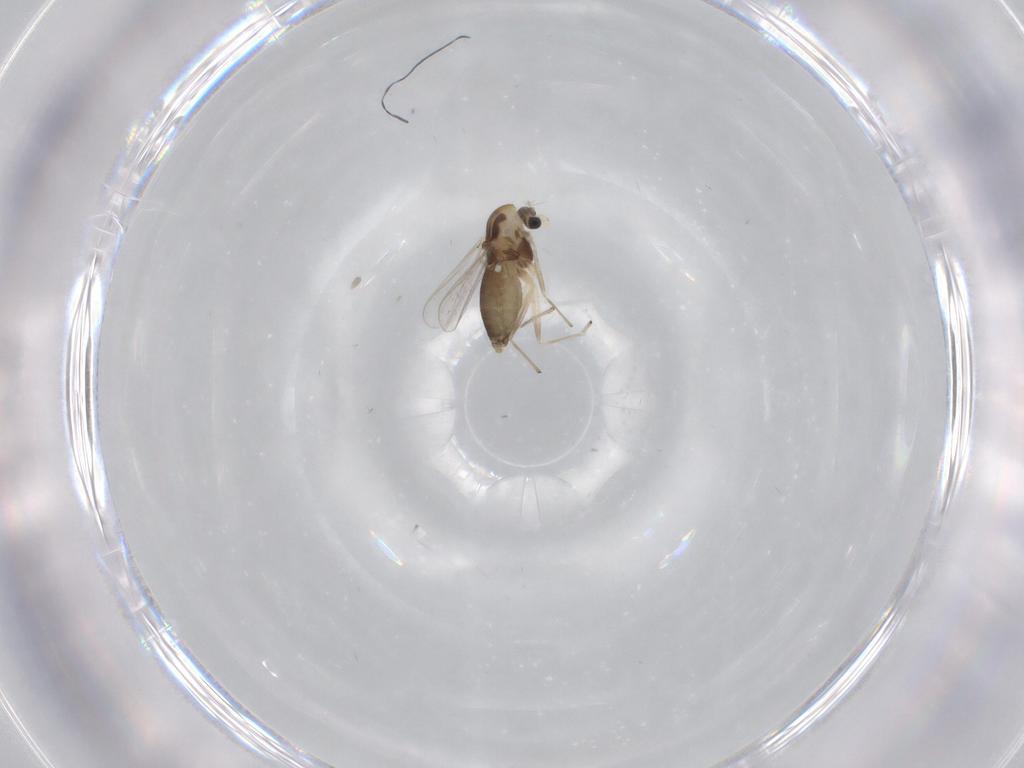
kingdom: Animalia
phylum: Arthropoda
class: Insecta
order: Diptera
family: Chironomidae
